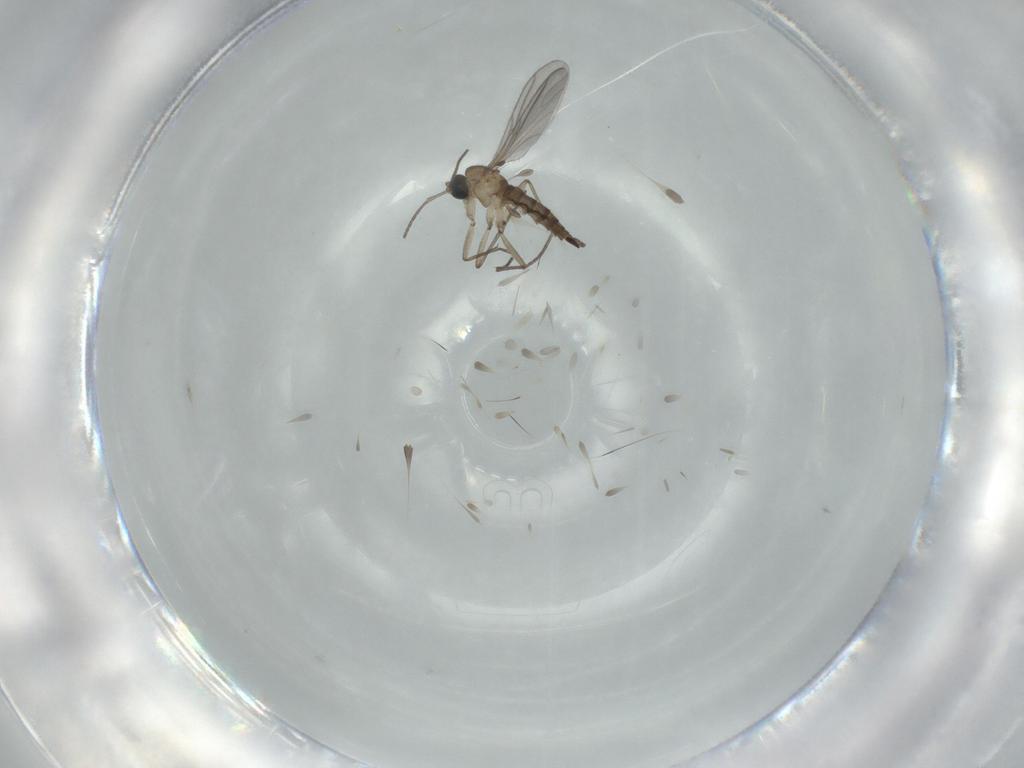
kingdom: Animalia
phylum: Arthropoda
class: Insecta
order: Diptera
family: Sciaridae
